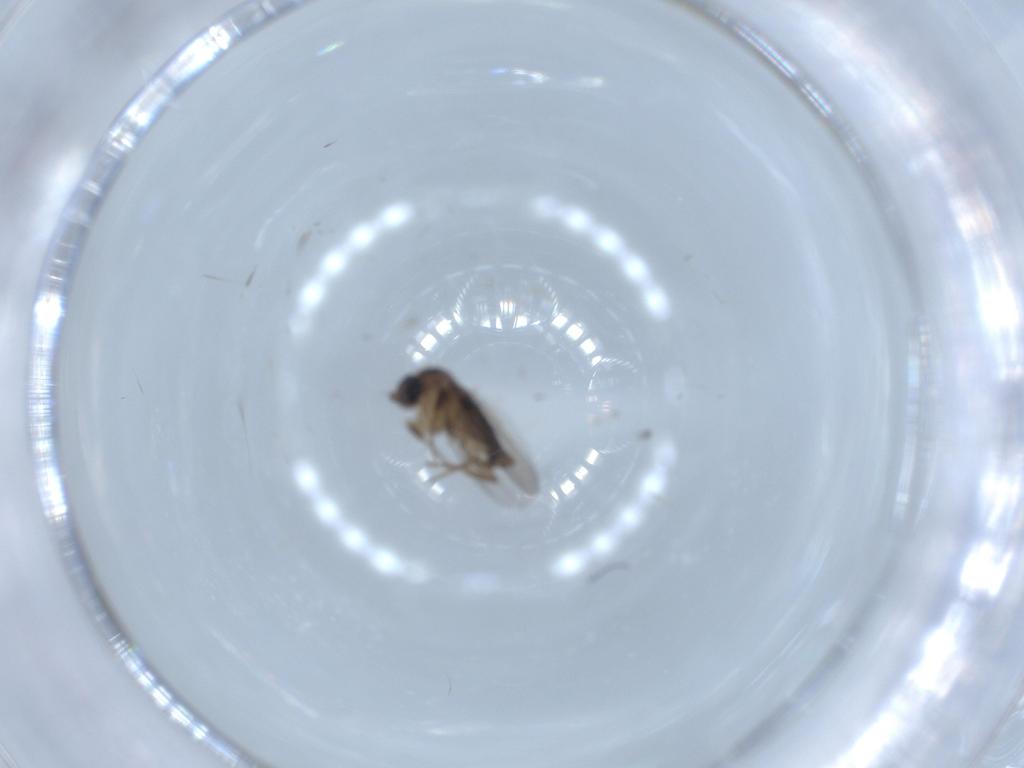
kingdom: Animalia
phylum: Arthropoda
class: Insecta
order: Diptera
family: Phoridae
